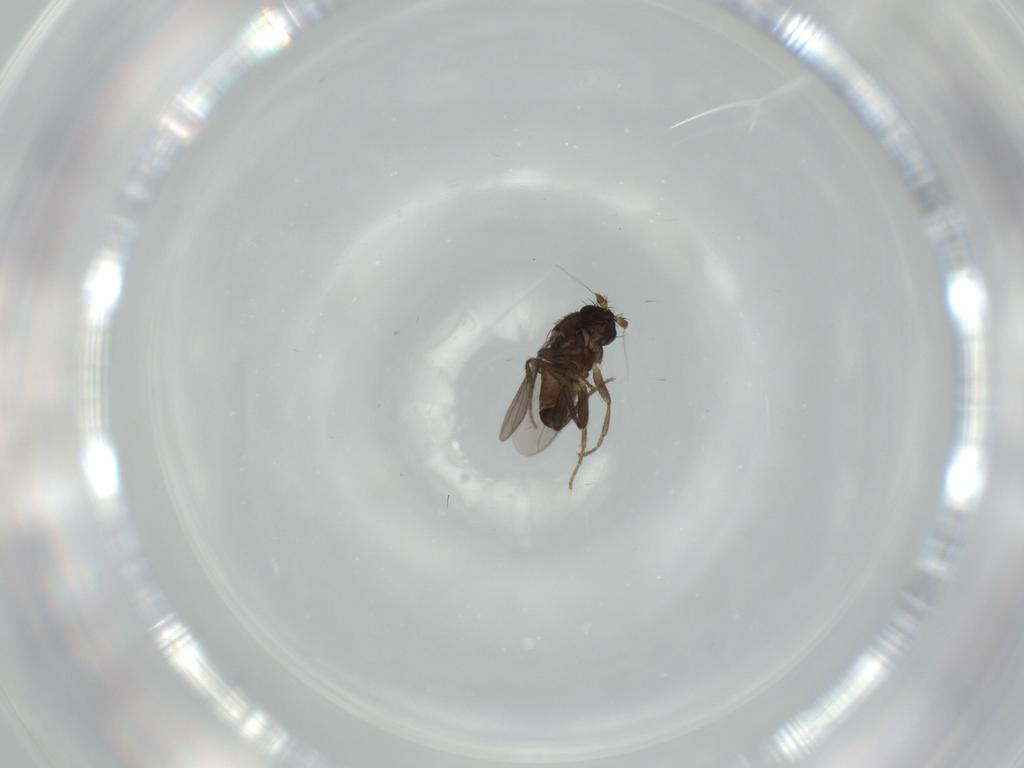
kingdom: Animalia
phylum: Arthropoda
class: Insecta
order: Diptera
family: Sphaeroceridae
